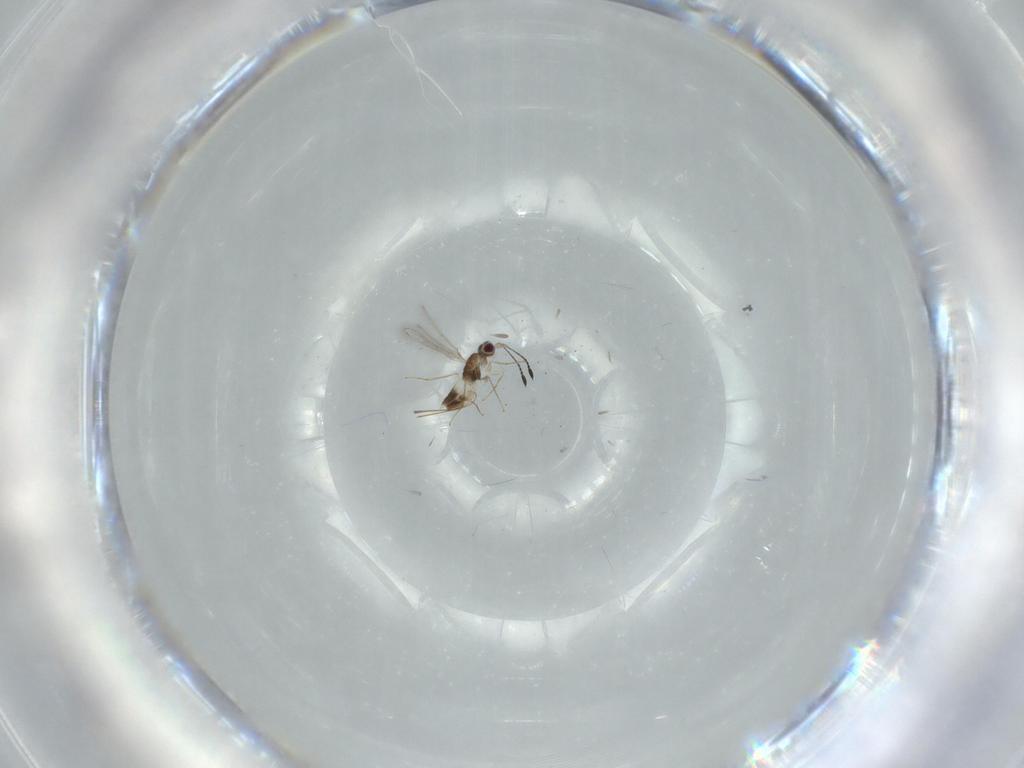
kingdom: Animalia
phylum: Arthropoda
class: Insecta
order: Hymenoptera
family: Mymaridae
